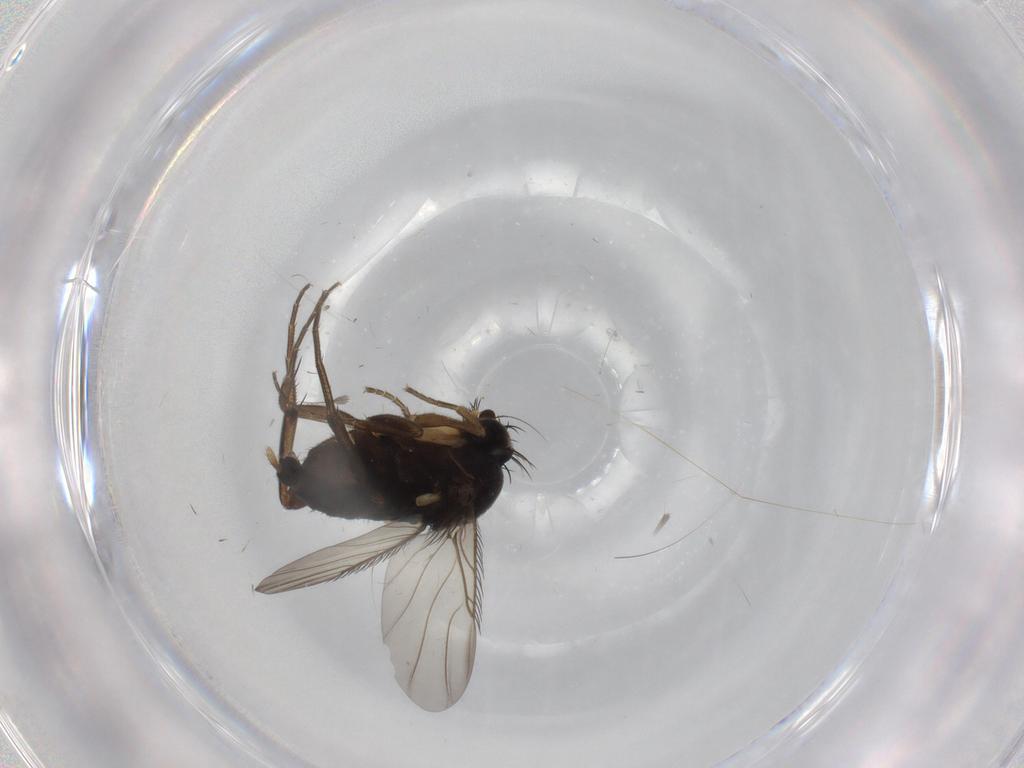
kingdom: Animalia
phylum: Arthropoda
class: Insecta
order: Diptera
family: Phoridae
